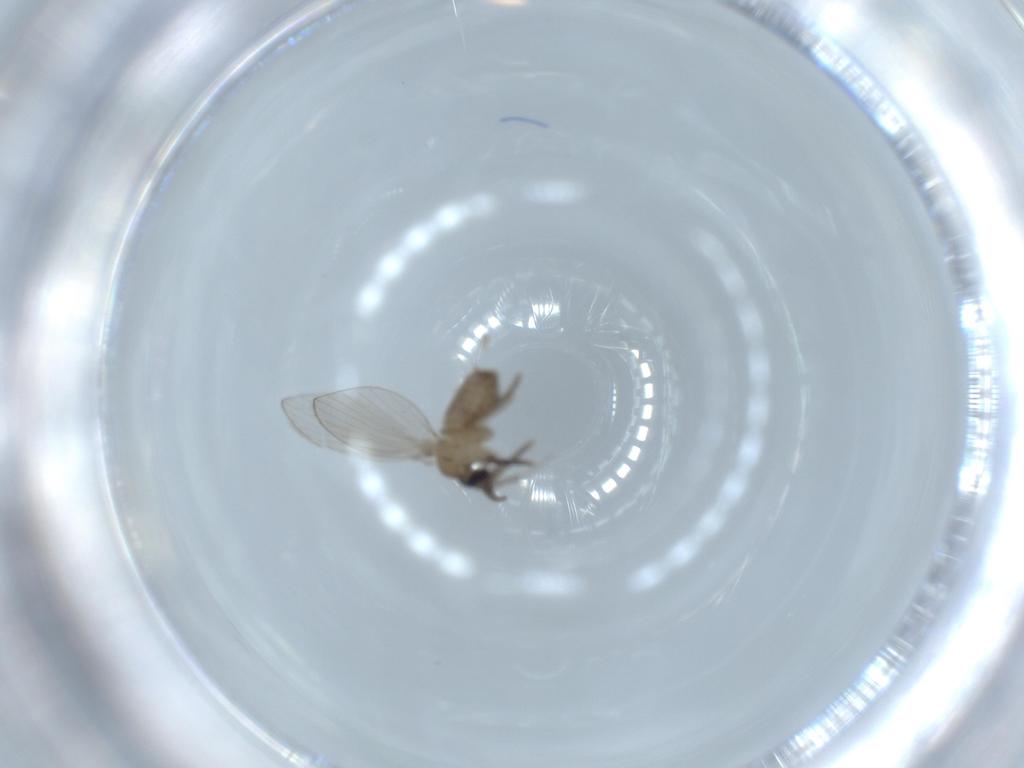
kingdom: Animalia
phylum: Arthropoda
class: Insecta
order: Diptera
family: Psychodidae
